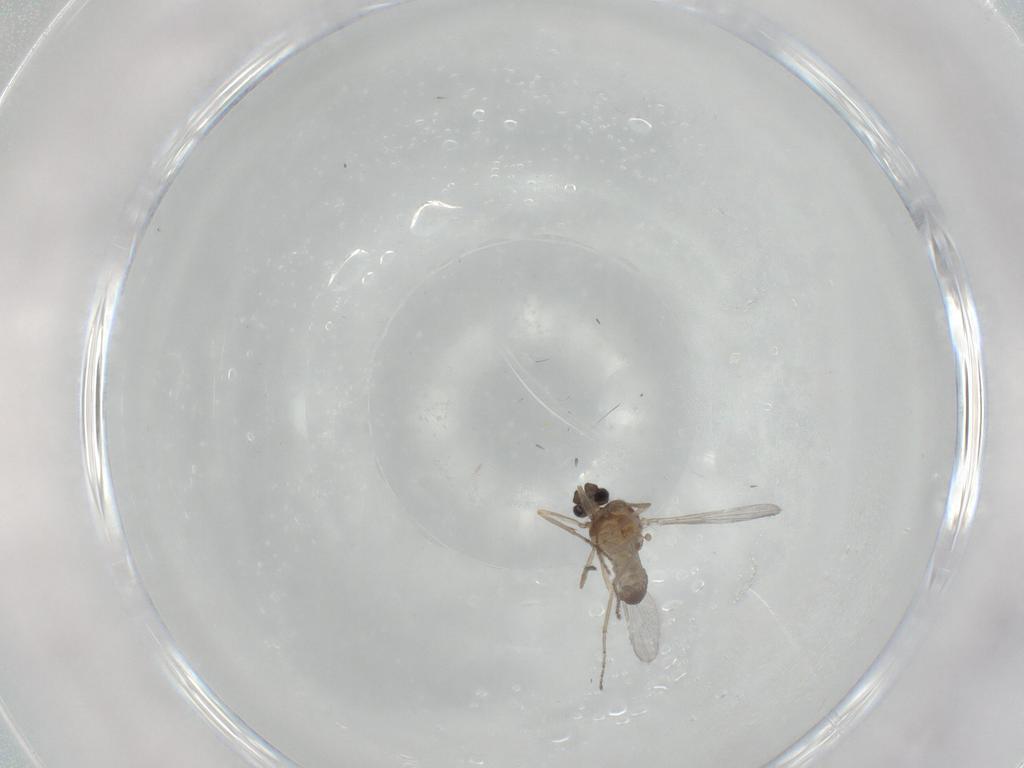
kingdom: Animalia
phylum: Arthropoda
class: Insecta
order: Diptera
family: Ceratopogonidae
